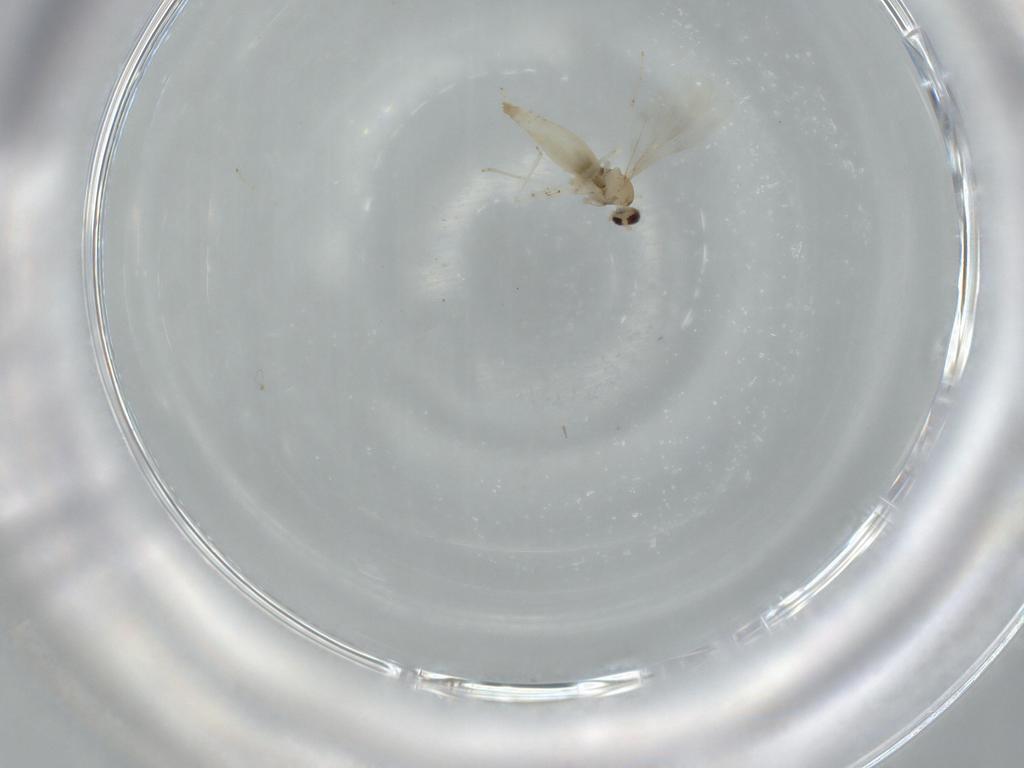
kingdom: Animalia
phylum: Arthropoda
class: Insecta
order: Diptera
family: Cecidomyiidae
